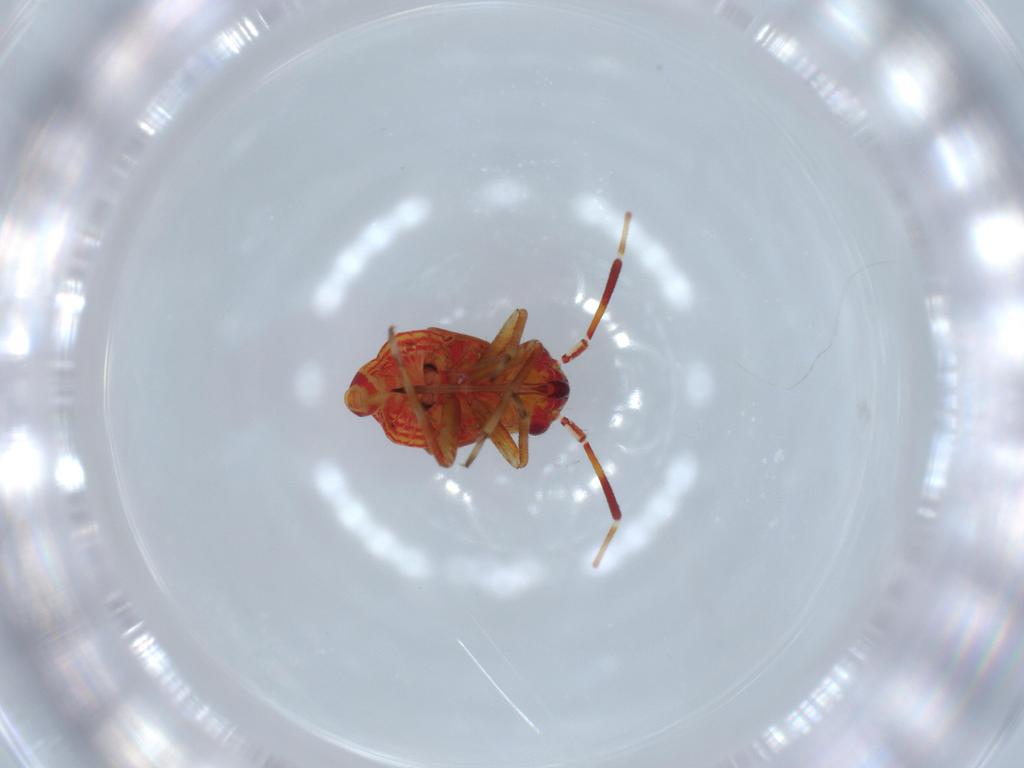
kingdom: Animalia
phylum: Arthropoda
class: Insecta
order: Hemiptera
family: Miridae
